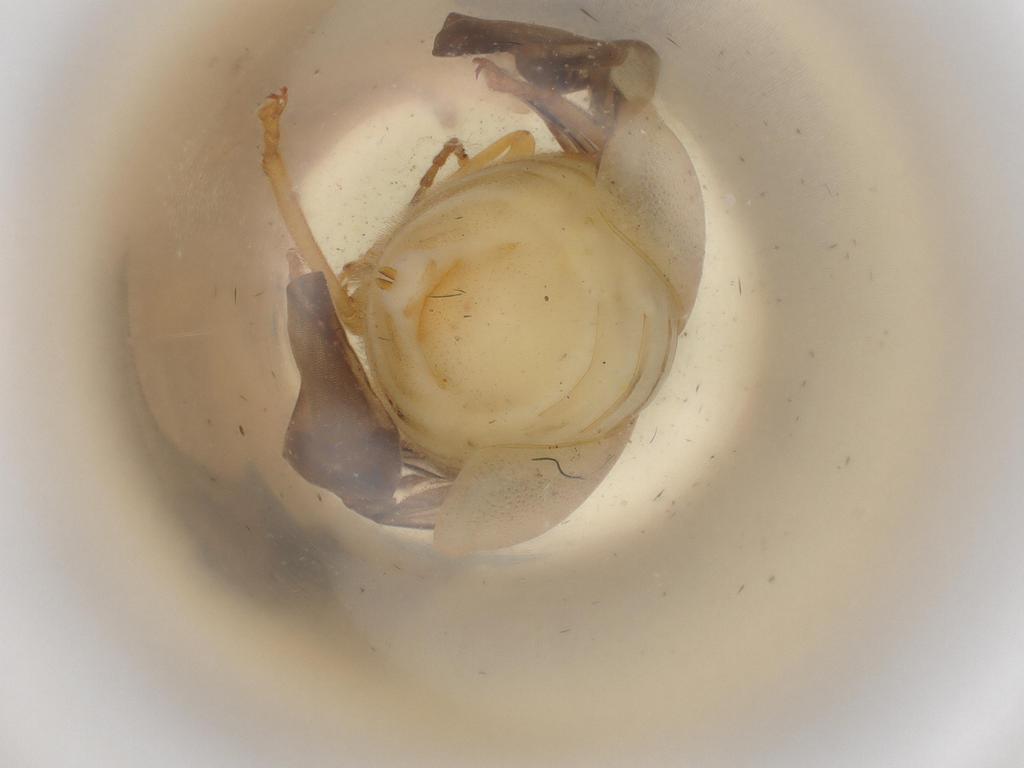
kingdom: Animalia
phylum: Arthropoda
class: Insecta
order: Coleoptera
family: Chrysomelidae
